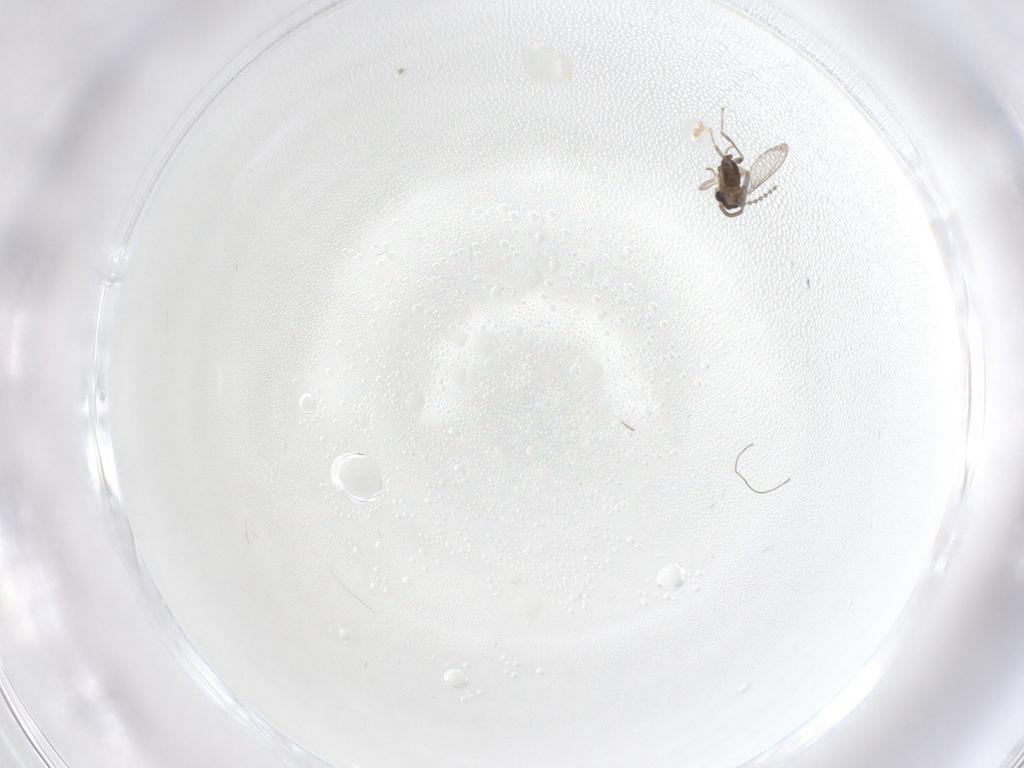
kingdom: Animalia
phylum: Arthropoda
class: Insecta
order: Diptera
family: Cecidomyiidae
